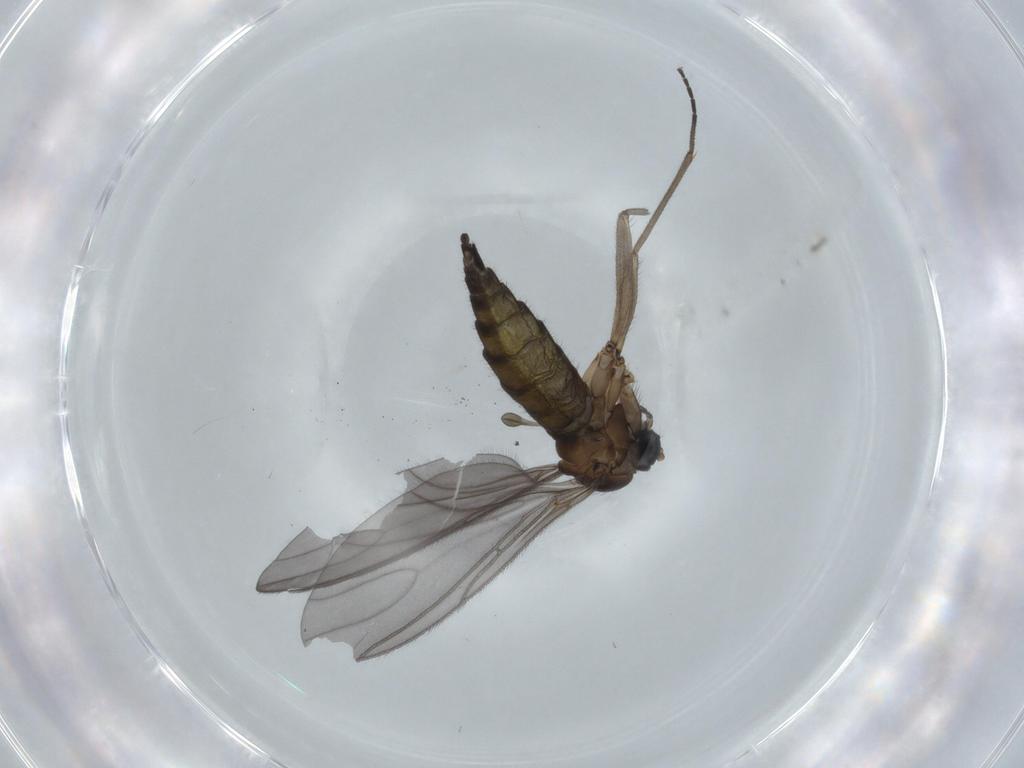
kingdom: Animalia
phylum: Arthropoda
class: Insecta
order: Diptera
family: Sciaridae
